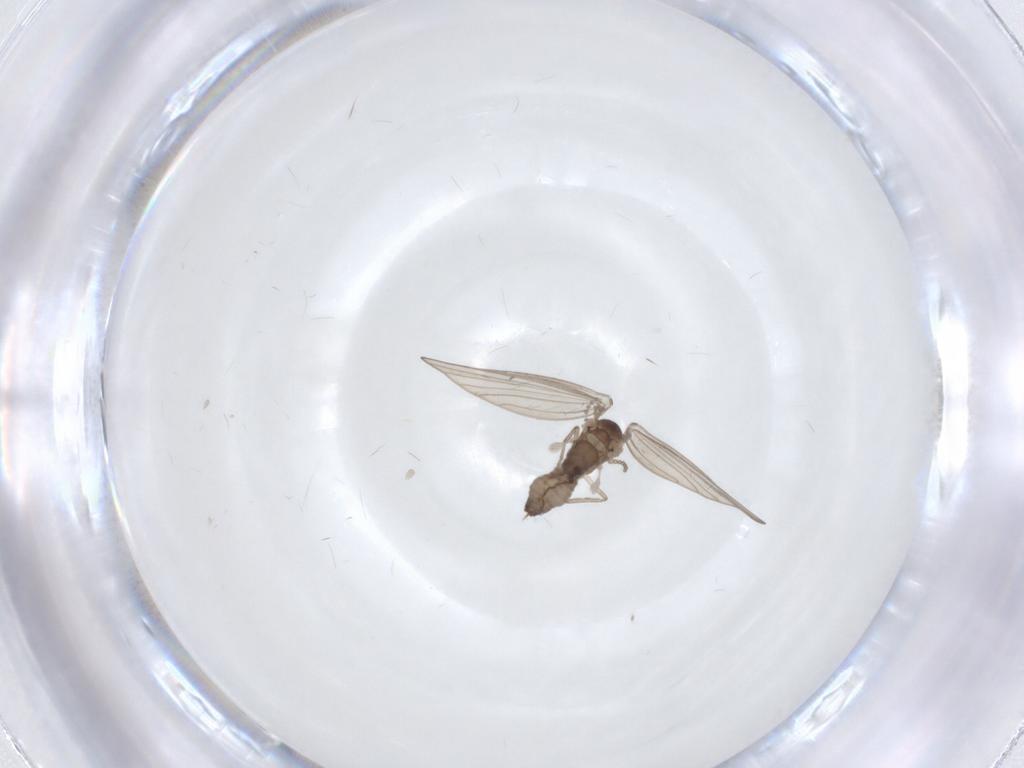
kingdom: Animalia
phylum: Arthropoda
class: Insecta
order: Diptera
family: Psychodidae
